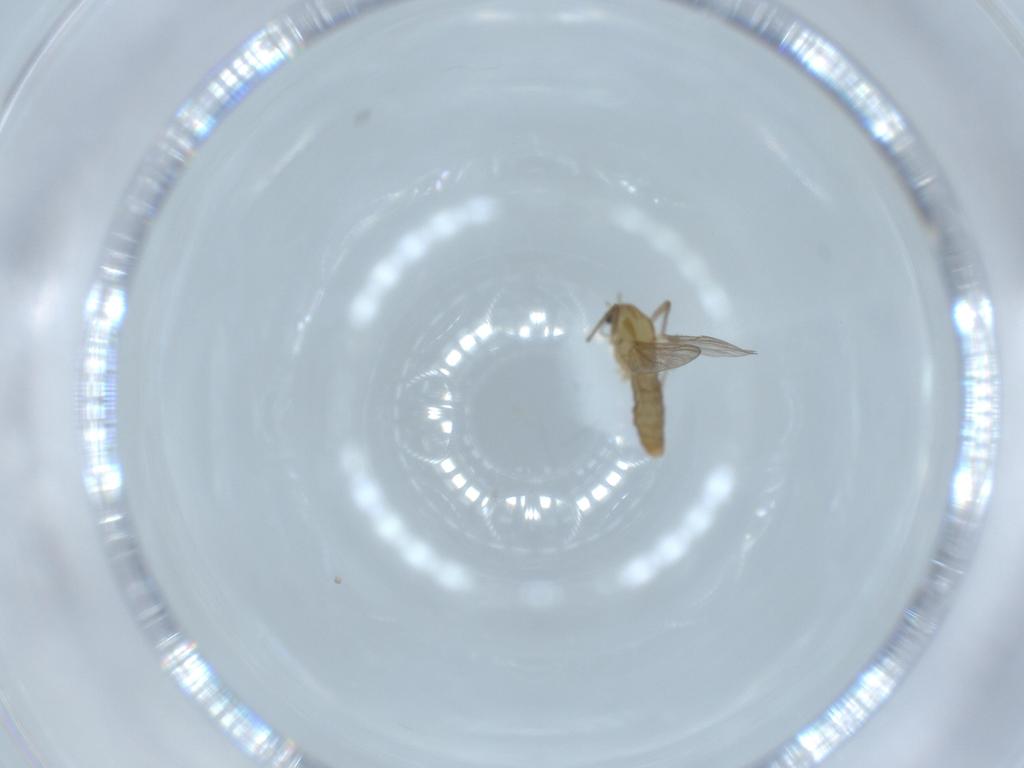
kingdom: Animalia
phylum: Arthropoda
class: Insecta
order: Diptera
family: Chironomidae
